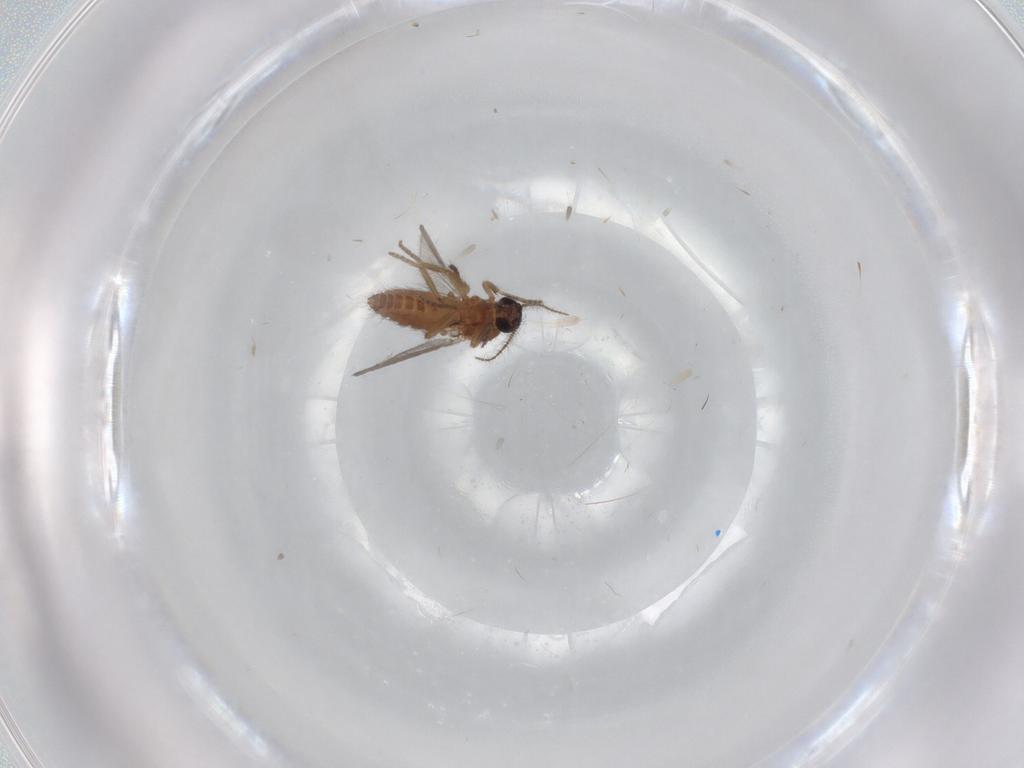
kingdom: Animalia
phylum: Arthropoda
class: Insecta
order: Diptera
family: Ceratopogonidae
